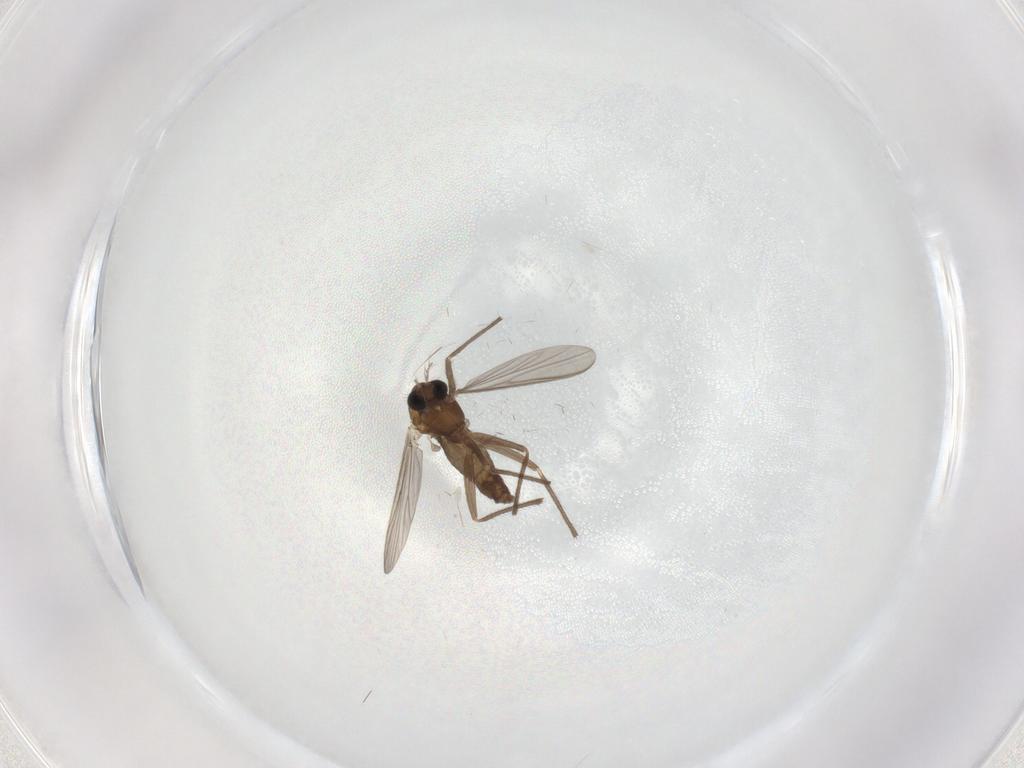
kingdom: Animalia
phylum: Arthropoda
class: Insecta
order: Diptera
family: Chironomidae
